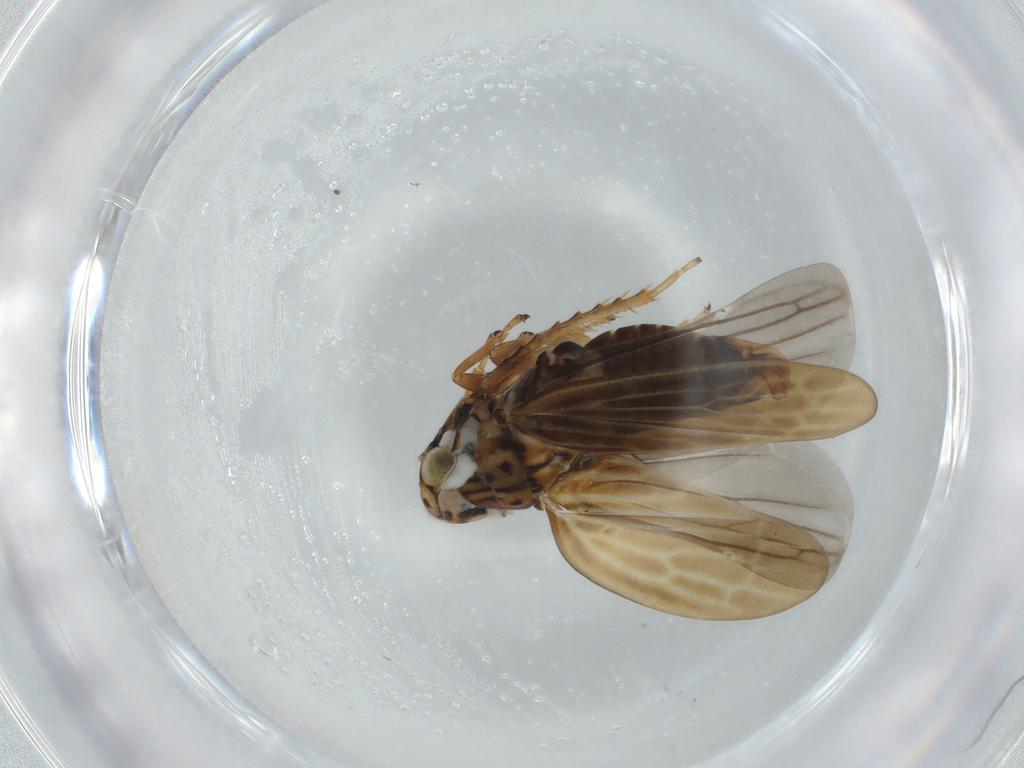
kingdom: Animalia
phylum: Arthropoda
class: Insecta
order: Hemiptera
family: Cicadellidae
